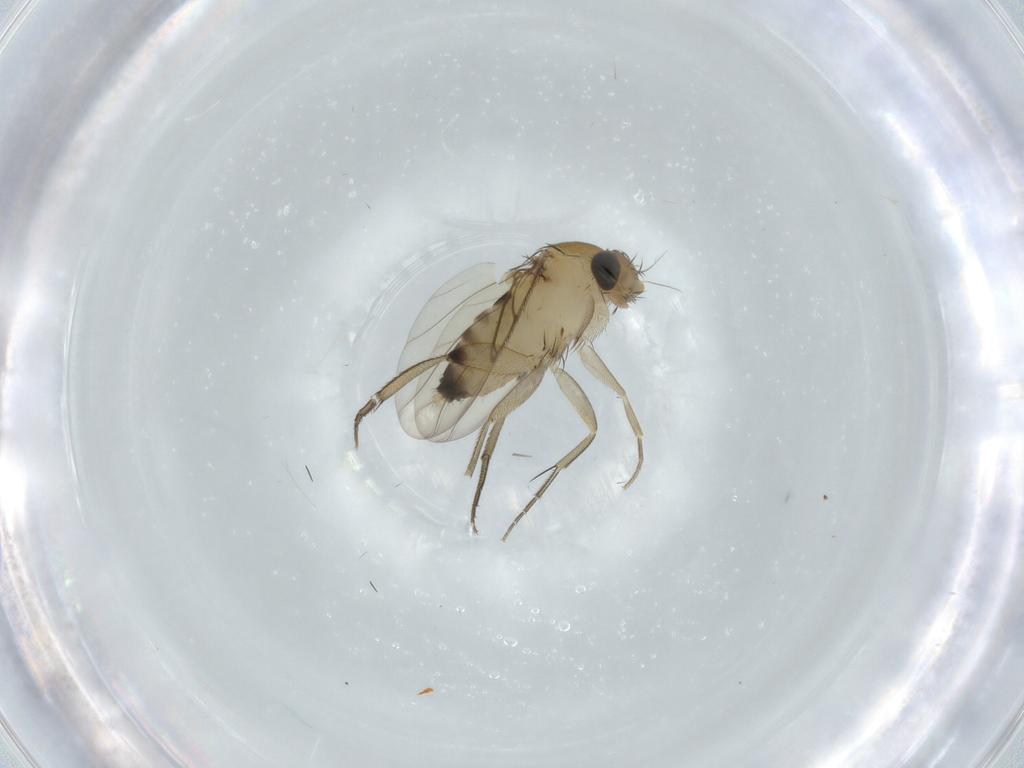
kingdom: Animalia
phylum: Arthropoda
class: Insecta
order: Diptera
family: Phoridae
